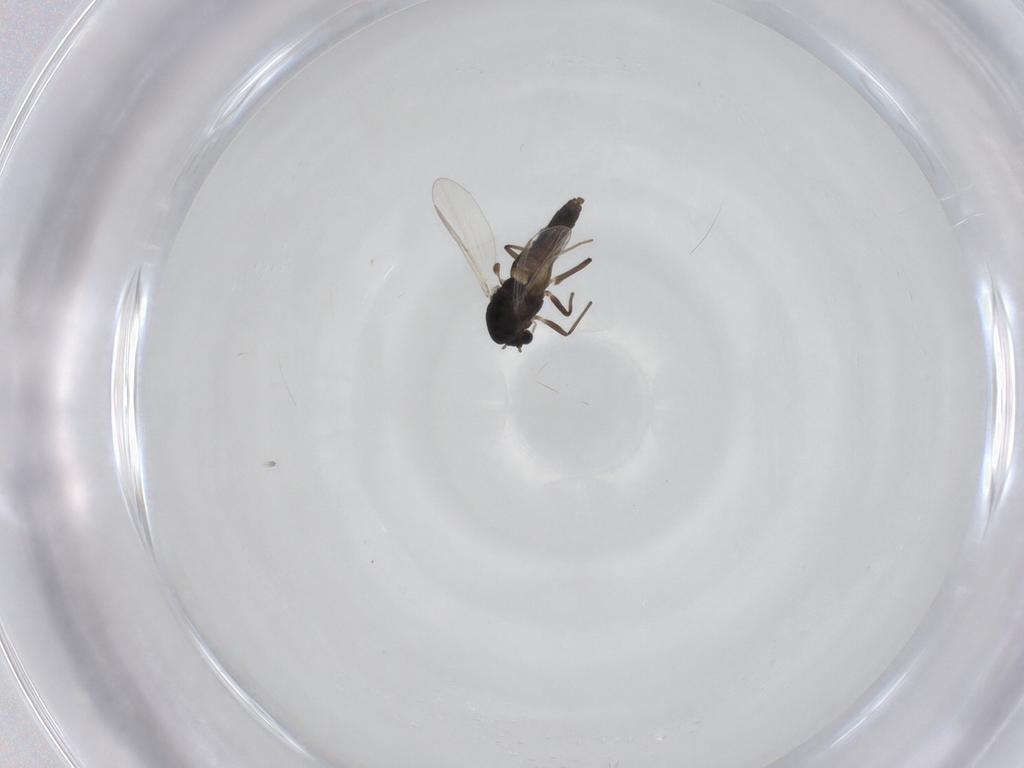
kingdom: Animalia
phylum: Arthropoda
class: Insecta
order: Diptera
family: Chironomidae
